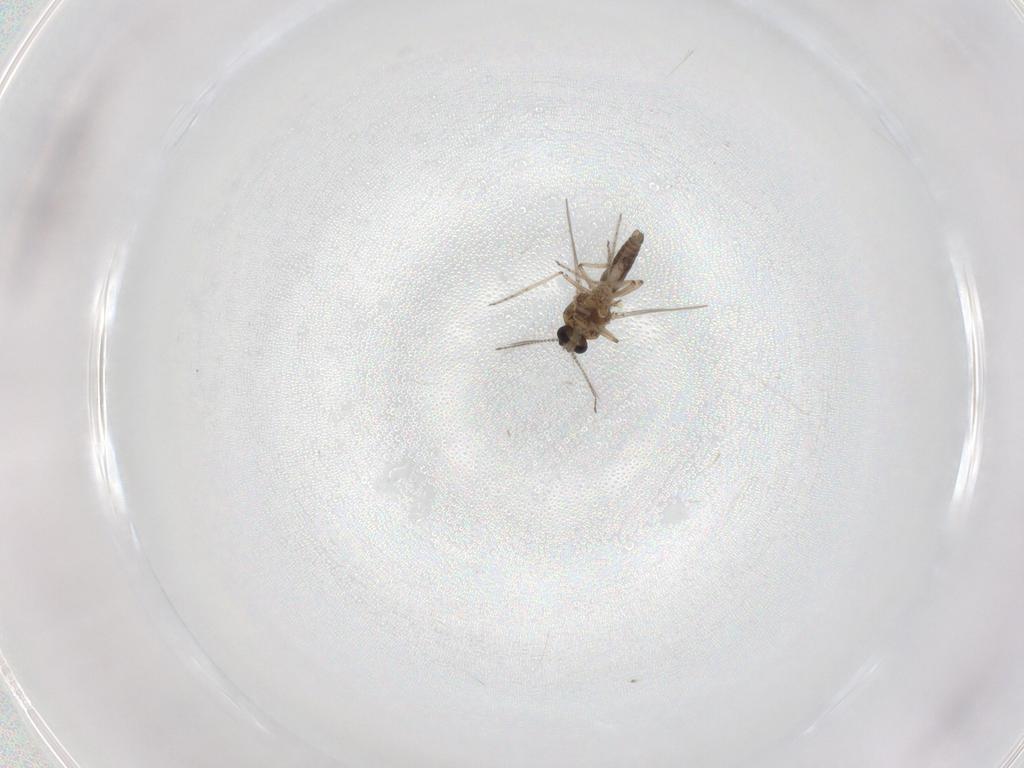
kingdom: Animalia
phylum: Arthropoda
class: Insecta
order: Diptera
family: Ceratopogonidae
